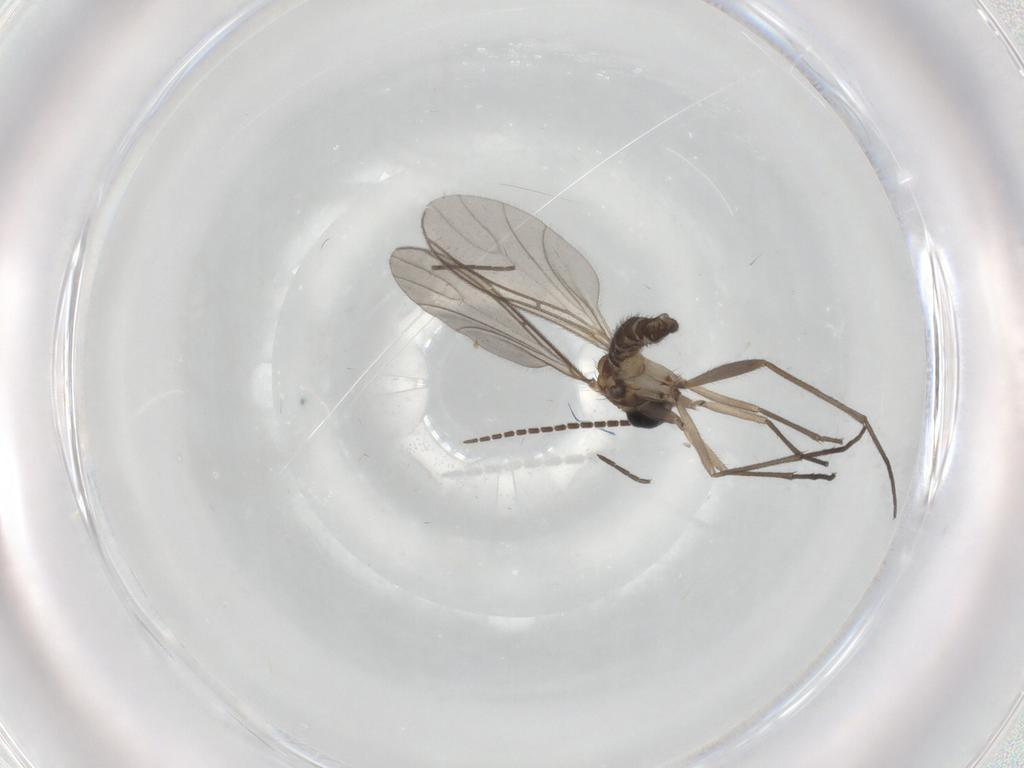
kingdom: Animalia
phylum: Arthropoda
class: Insecta
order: Diptera
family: Sciaridae
